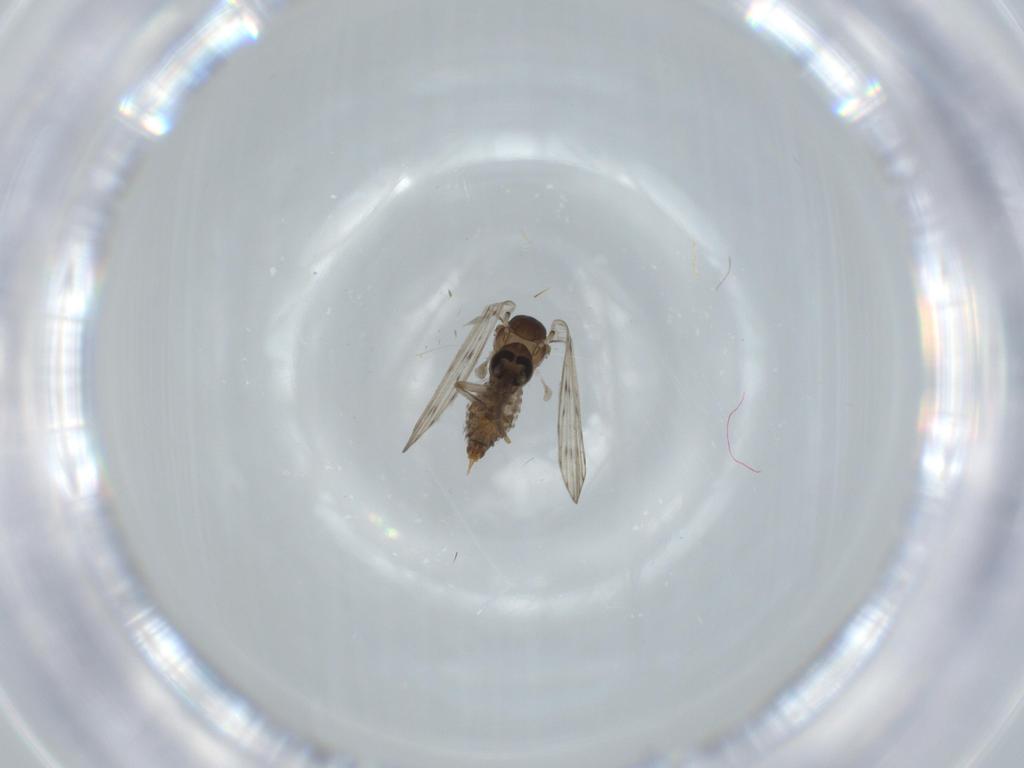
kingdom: Animalia
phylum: Arthropoda
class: Insecta
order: Diptera
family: Psychodidae
